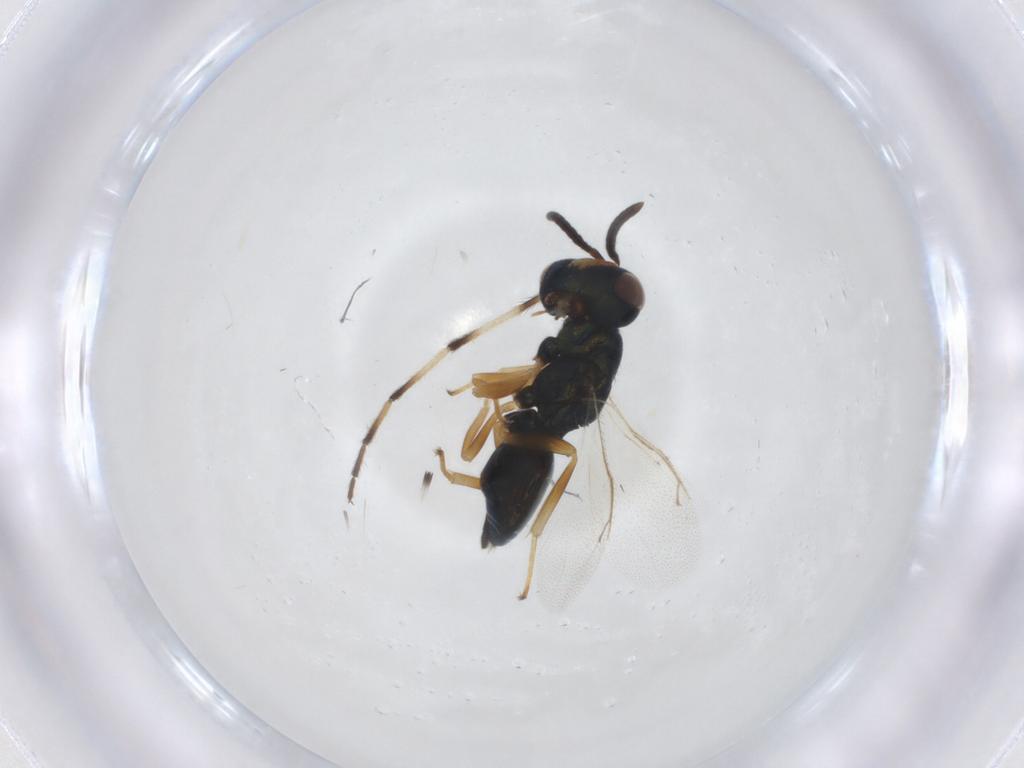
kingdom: Animalia
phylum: Arthropoda
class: Insecta
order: Hymenoptera
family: Pteromalidae
